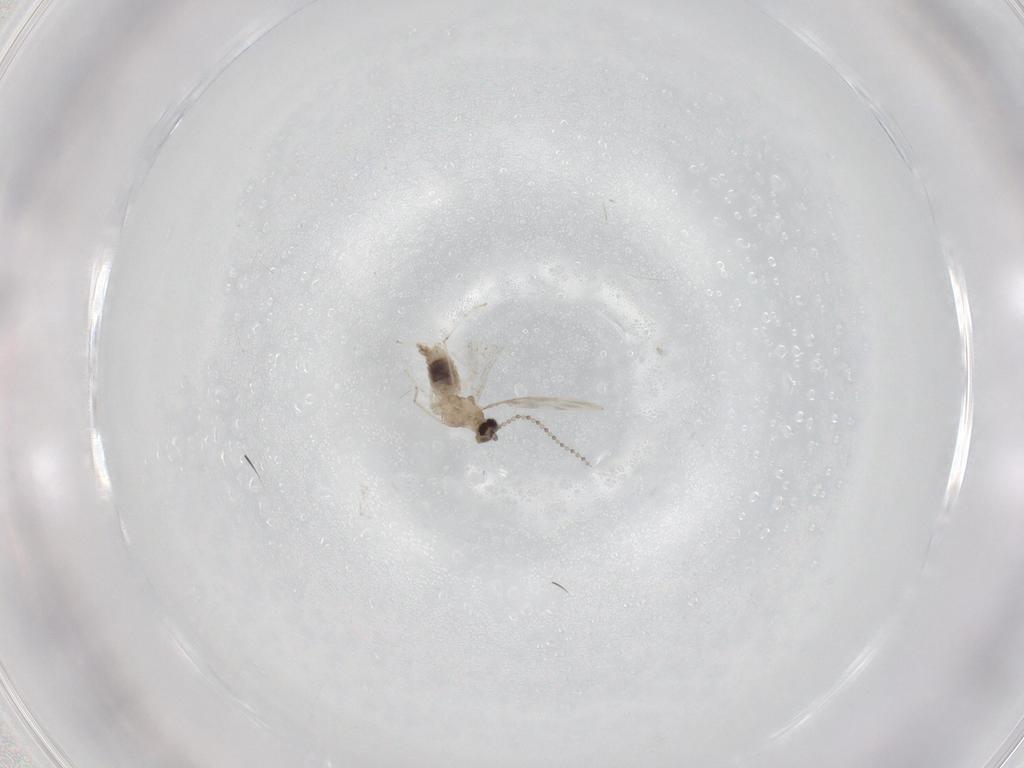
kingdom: Animalia
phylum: Arthropoda
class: Insecta
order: Diptera
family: Cecidomyiidae
